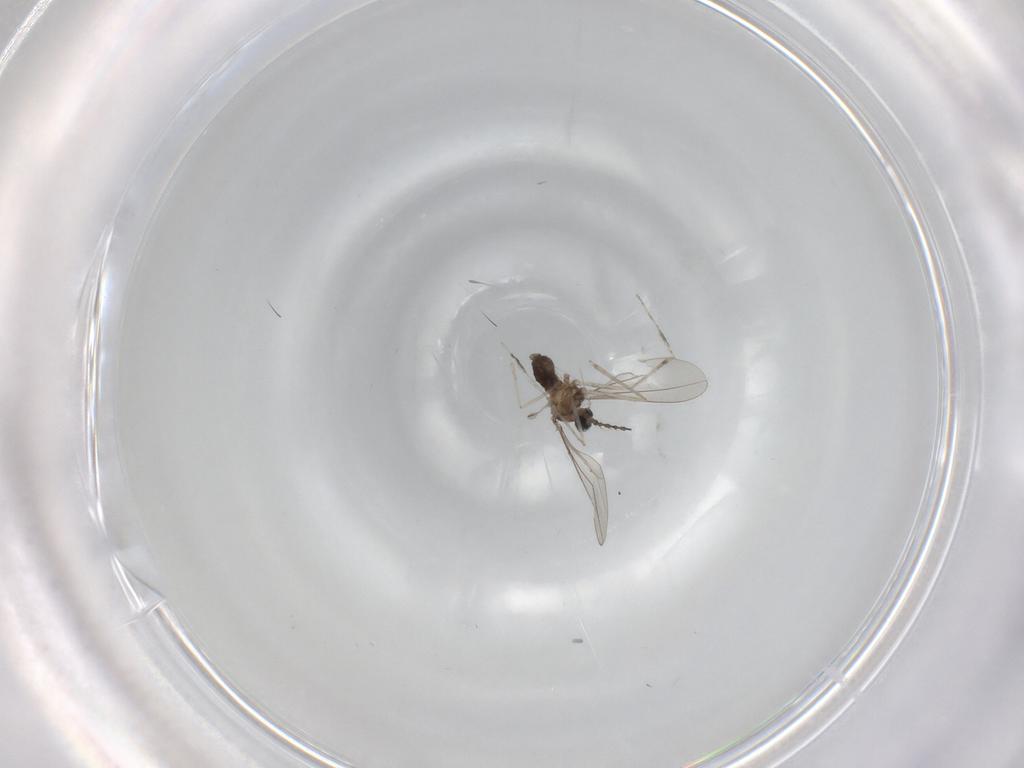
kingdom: Animalia
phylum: Arthropoda
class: Insecta
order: Diptera
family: Cecidomyiidae
